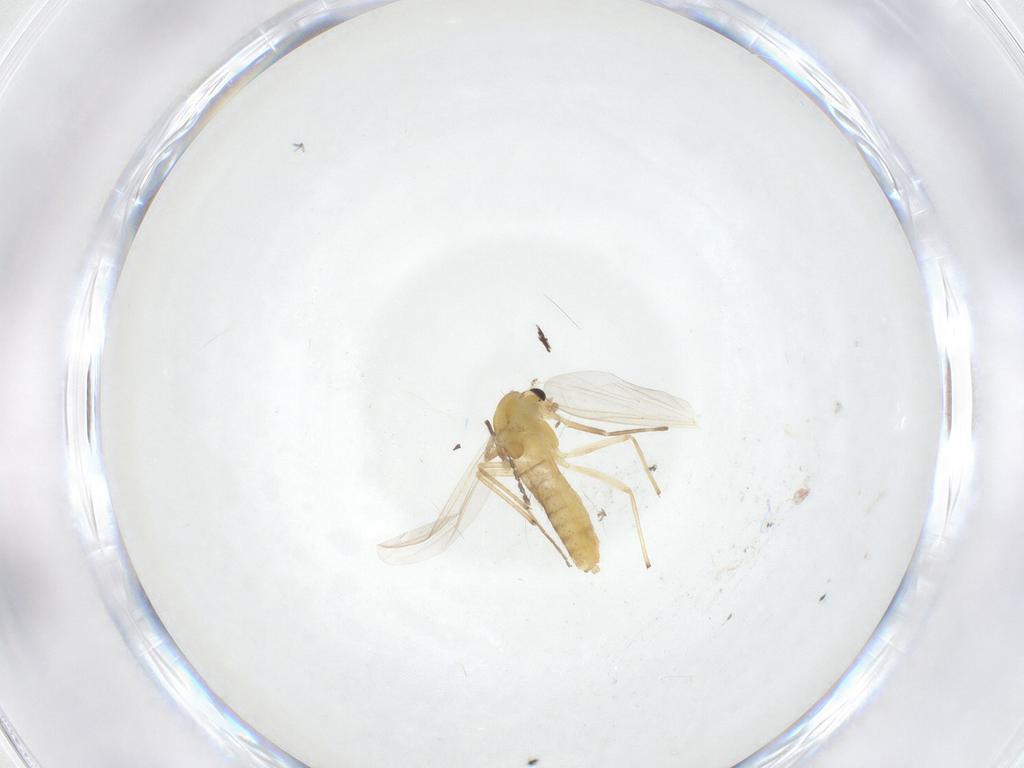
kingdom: Animalia
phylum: Arthropoda
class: Insecta
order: Diptera
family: Chironomidae
